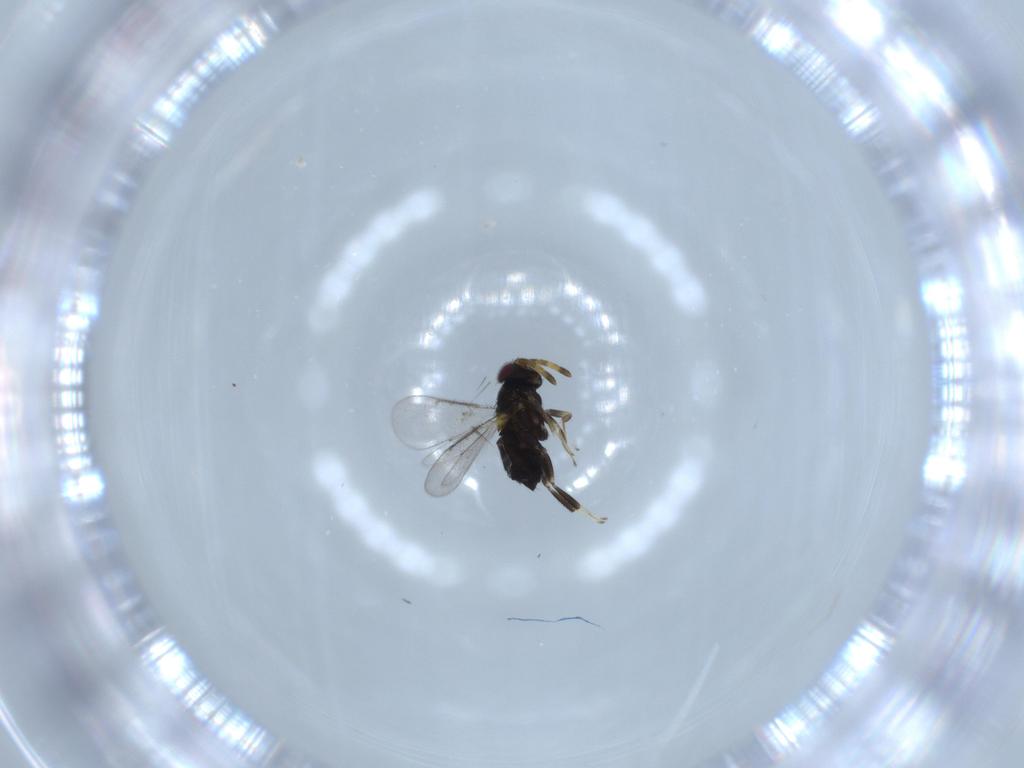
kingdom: Animalia
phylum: Arthropoda
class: Insecta
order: Hymenoptera
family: Aphelinidae
